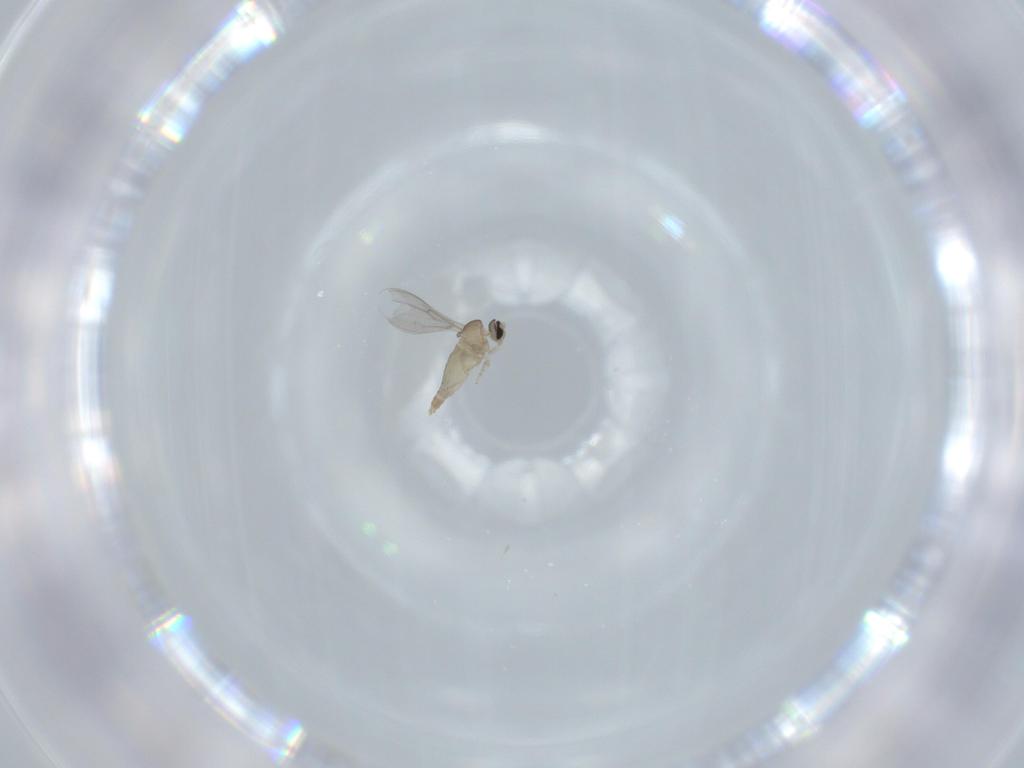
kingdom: Animalia
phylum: Arthropoda
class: Insecta
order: Diptera
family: Cecidomyiidae
